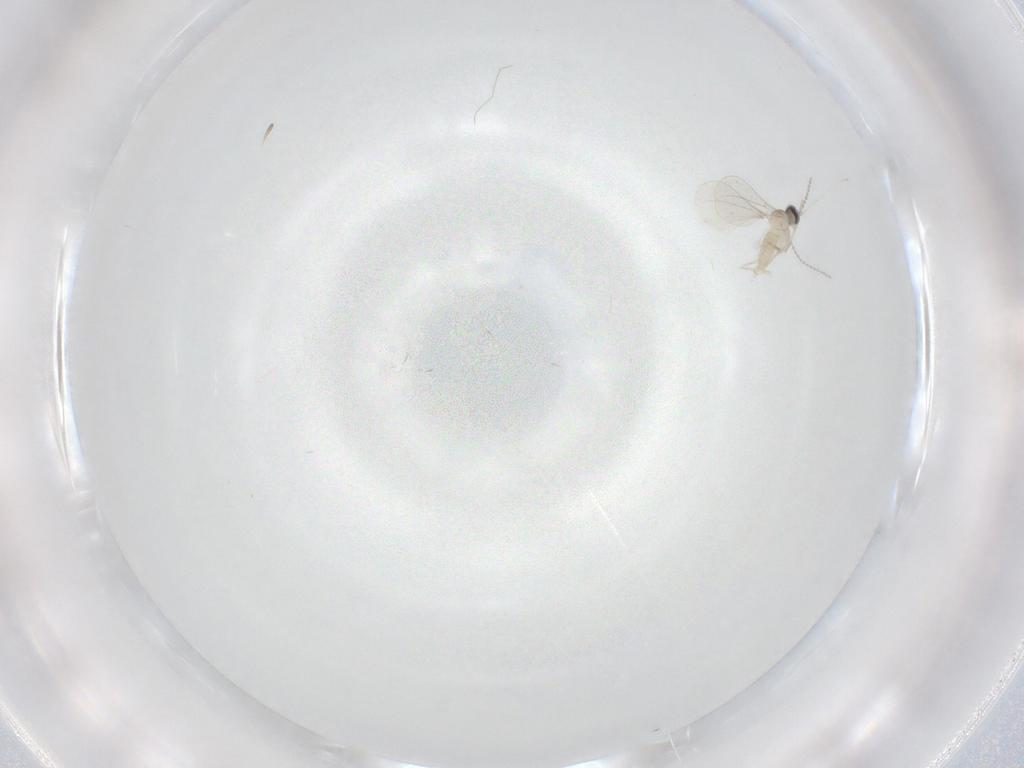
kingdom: Animalia
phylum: Arthropoda
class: Insecta
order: Diptera
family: Cecidomyiidae
